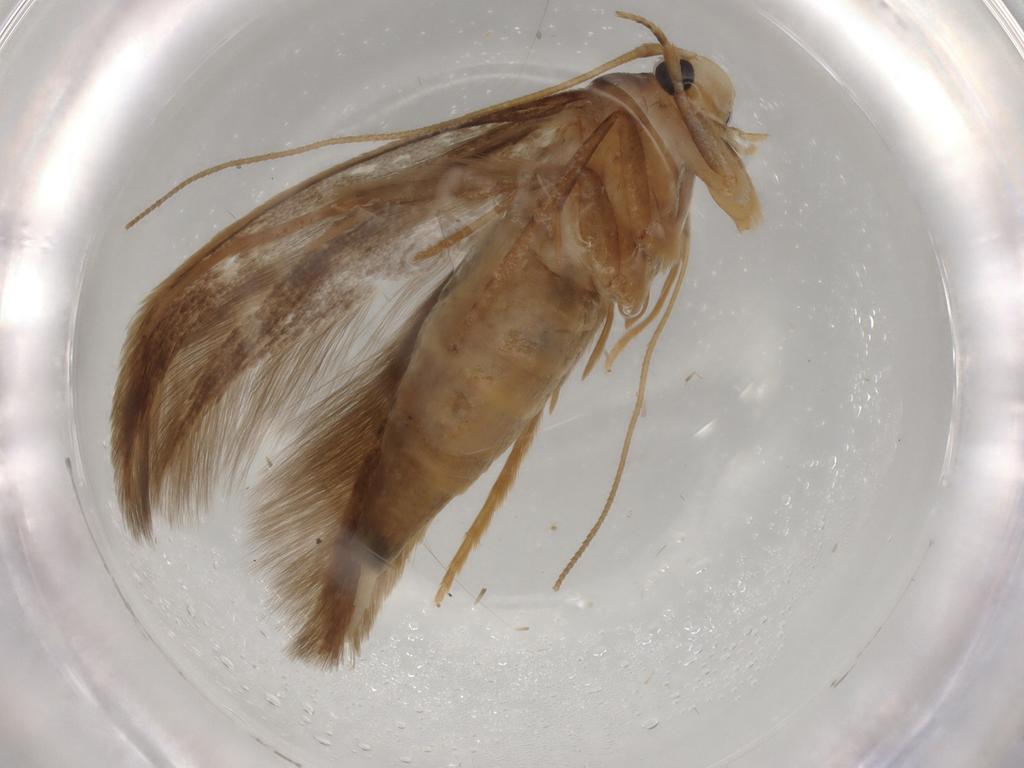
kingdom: Animalia
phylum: Arthropoda
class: Insecta
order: Lepidoptera
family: Tineidae
